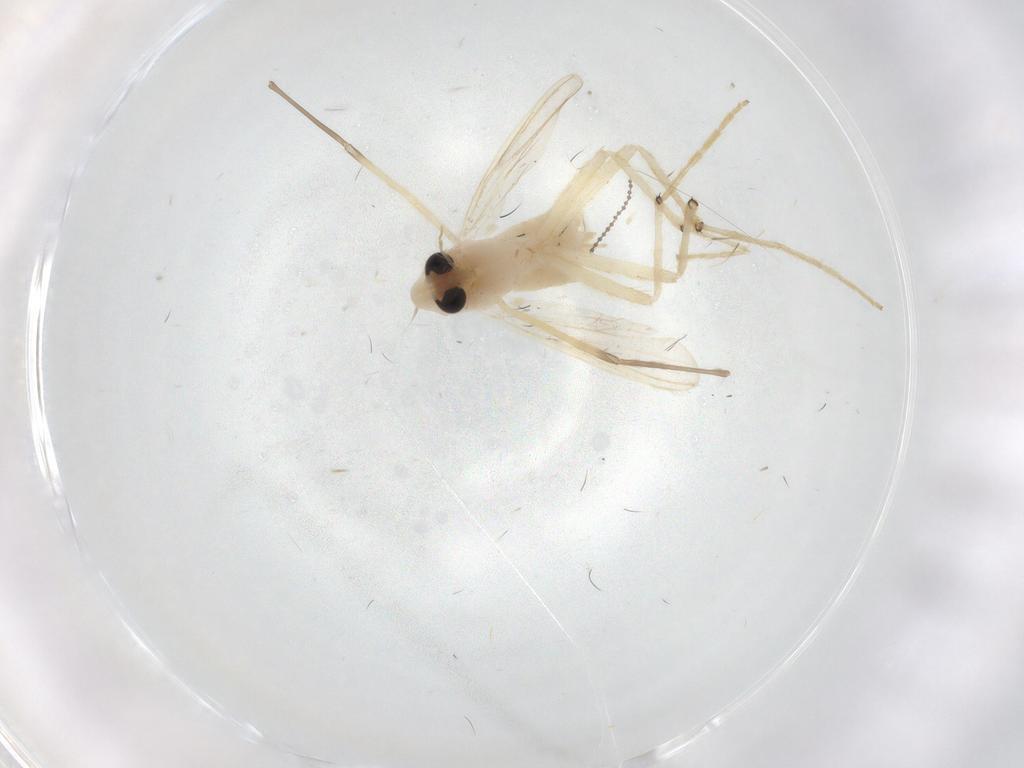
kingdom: Animalia
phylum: Arthropoda
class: Insecta
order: Diptera
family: Chironomidae
